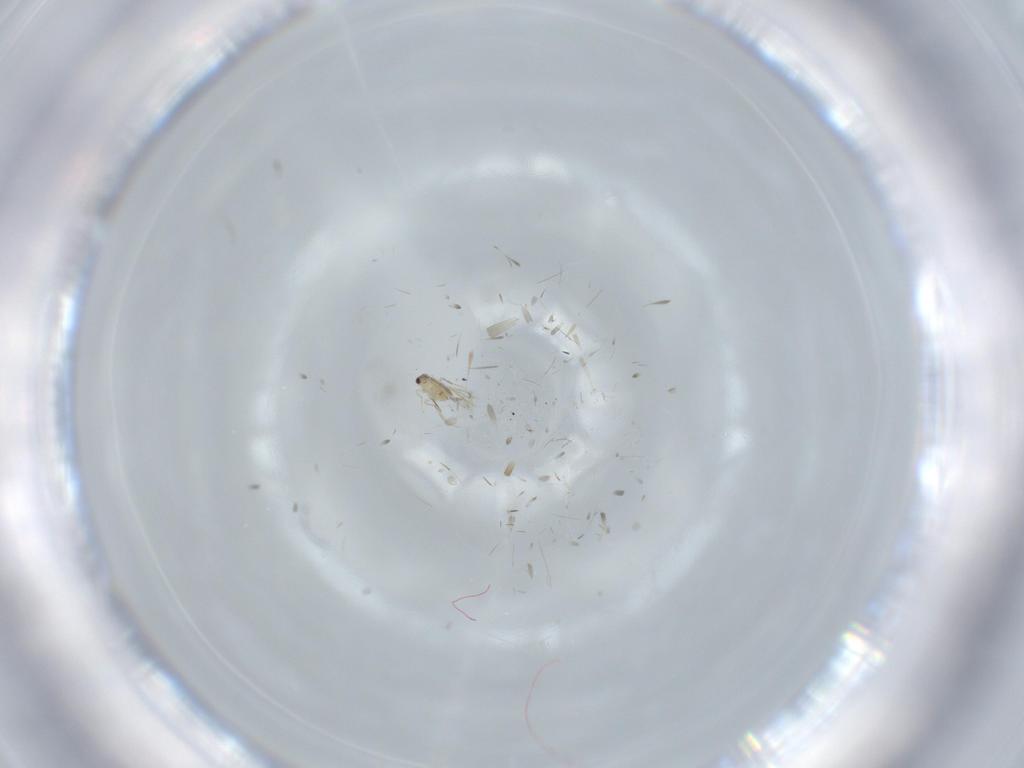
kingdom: Animalia
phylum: Arthropoda
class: Insecta
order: Diptera
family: Chironomidae
